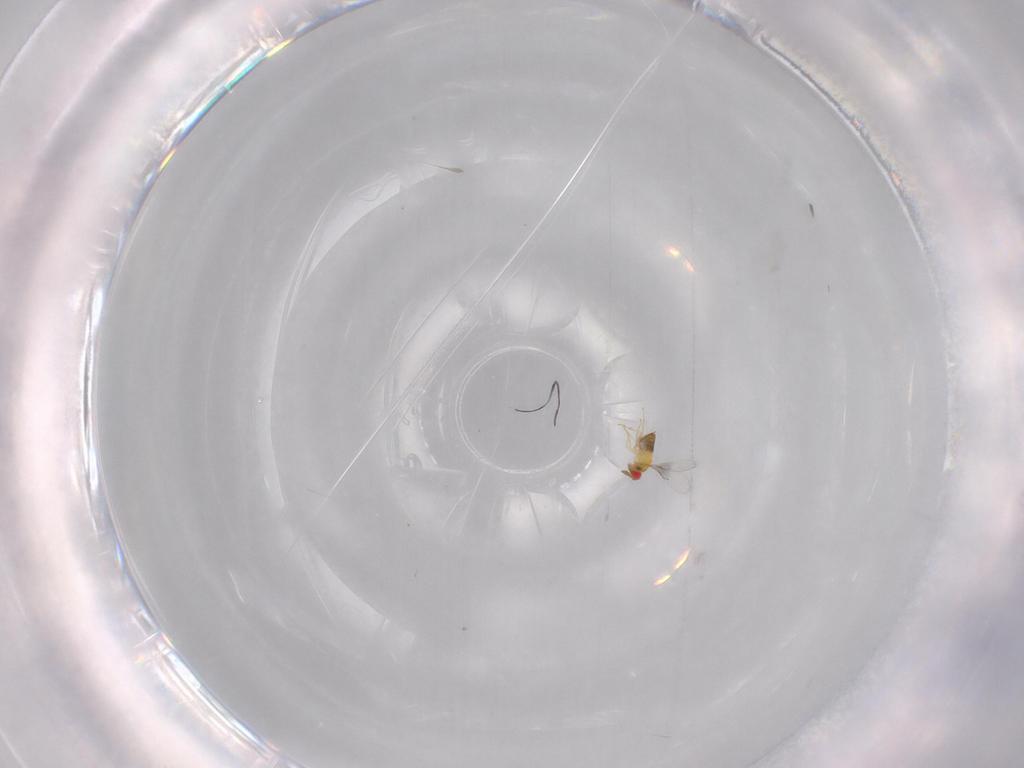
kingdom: Animalia
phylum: Arthropoda
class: Insecta
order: Hymenoptera
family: Trichogrammatidae
